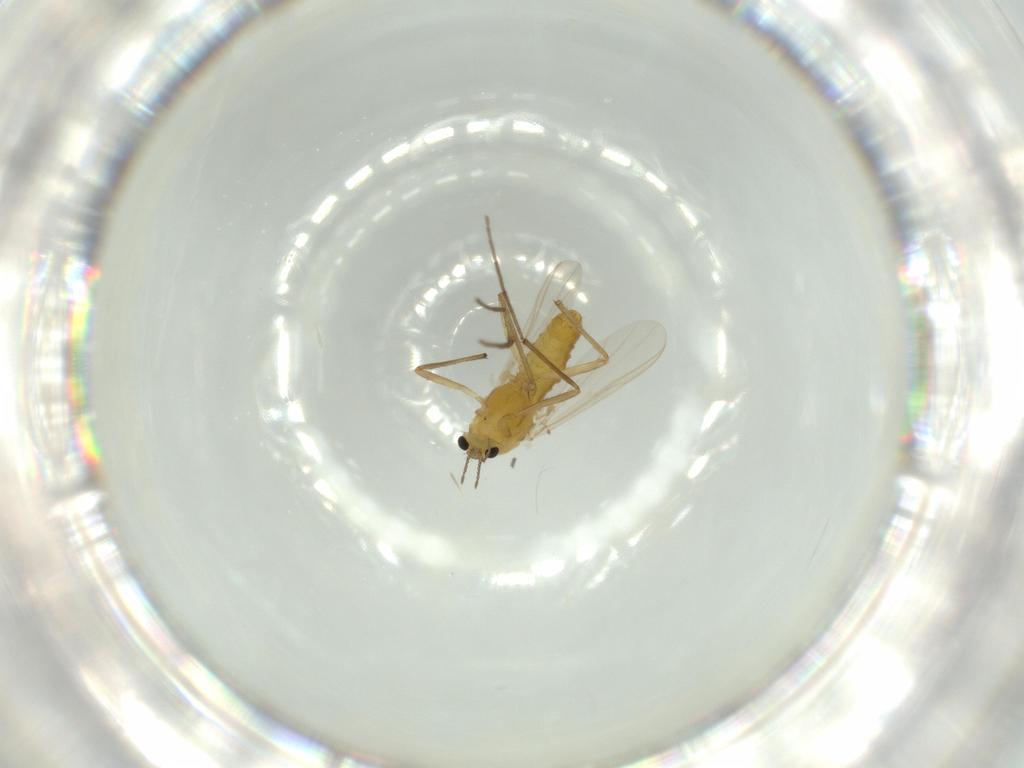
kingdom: Animalia
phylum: Arthropoda
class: Insecta
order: Diptera
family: Chironomidae
